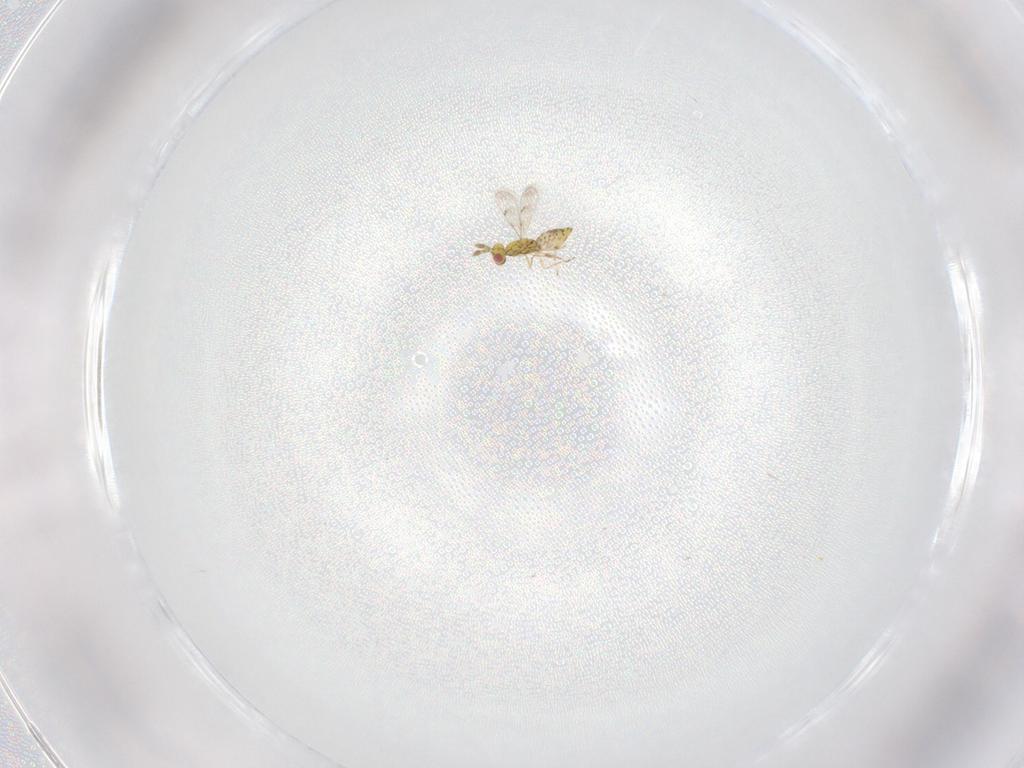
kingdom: Animalia
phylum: Arthropoda
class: Insecta
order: Hymenoptera
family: Eulophidae
